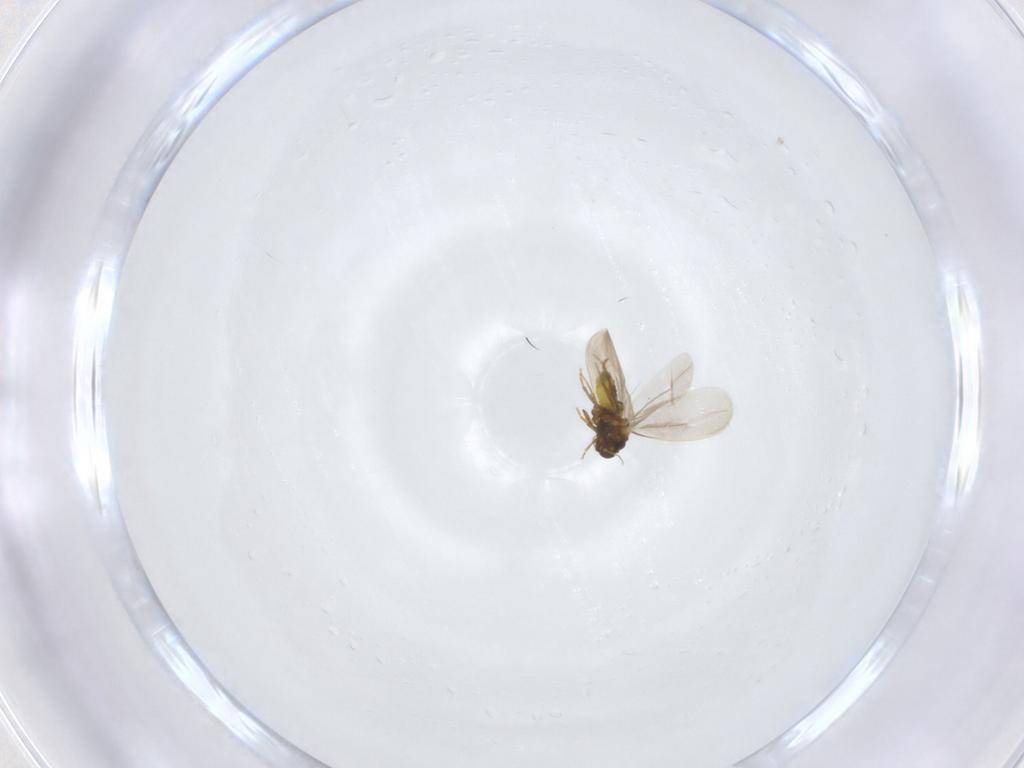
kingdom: Animalia
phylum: Arthropoda
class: Insecta
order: Hemiptera
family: Aleyrodidae
